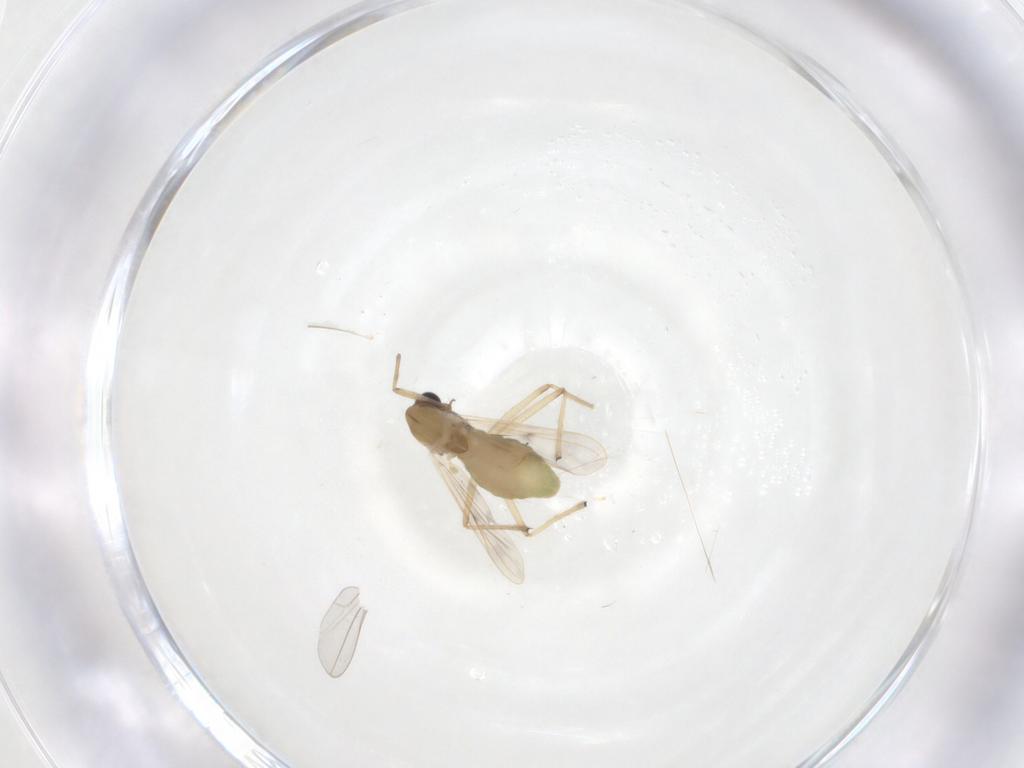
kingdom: Animalia
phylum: Arthropoda
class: Insecta
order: Diptera
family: Chironomidae
